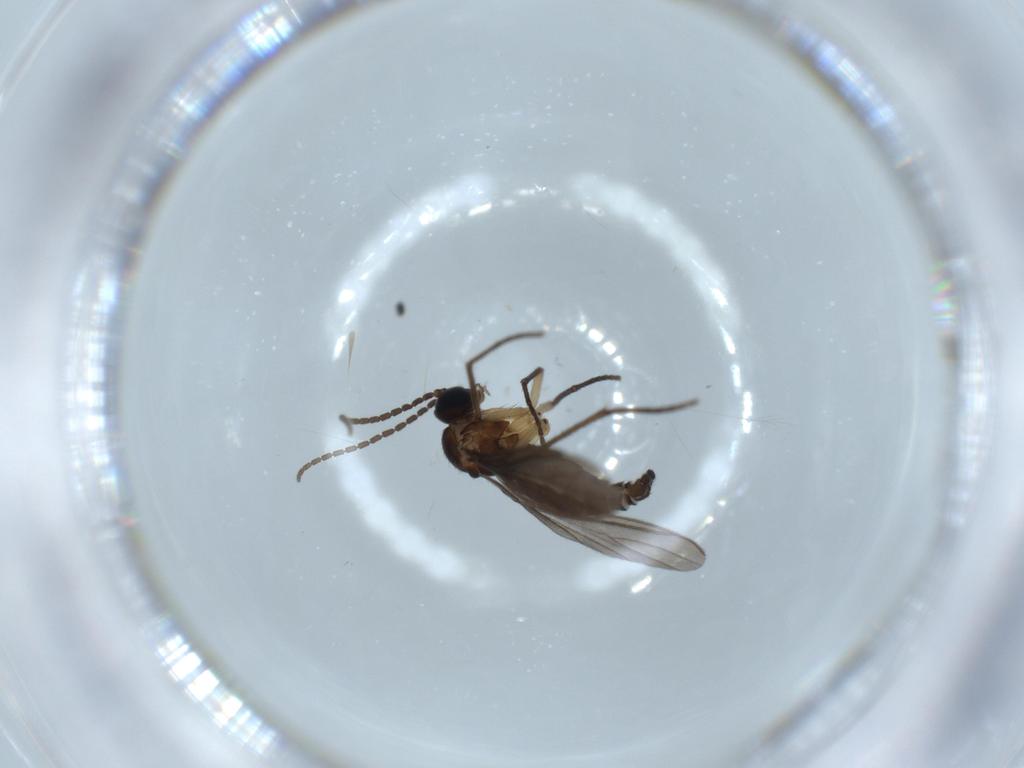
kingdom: Animalia
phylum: Arthropoda
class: Insecta
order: Diptera
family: Sciaridae
